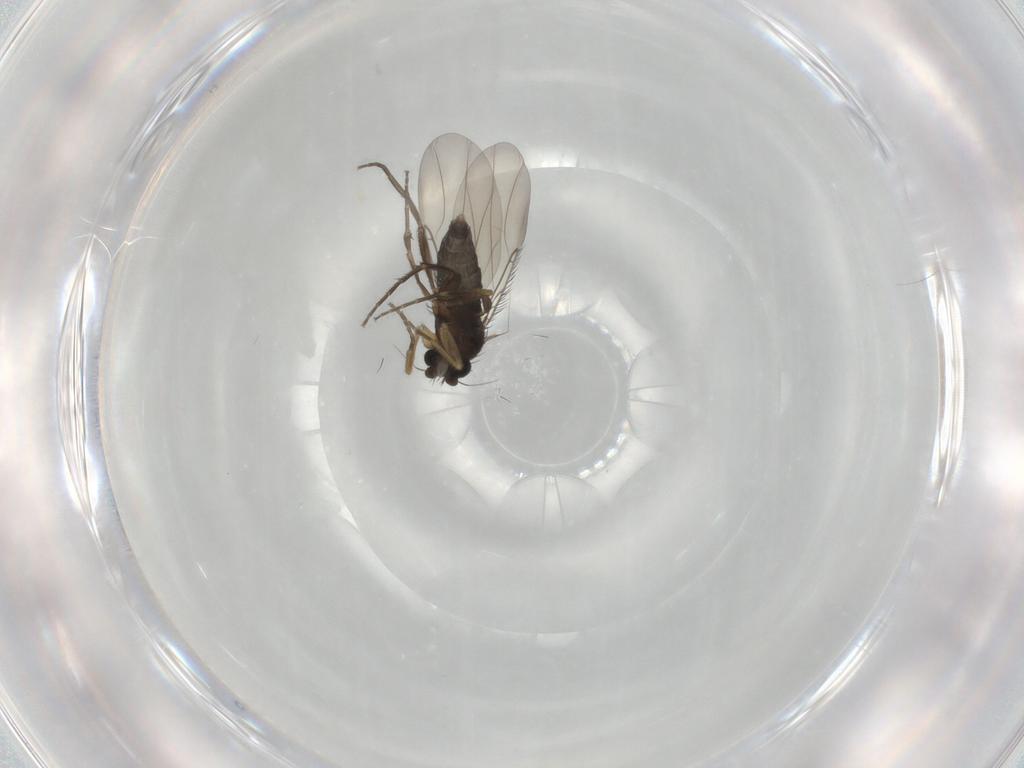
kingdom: Animalia
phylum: Arthropoda
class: Insecta
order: Diptera
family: Phoridae
